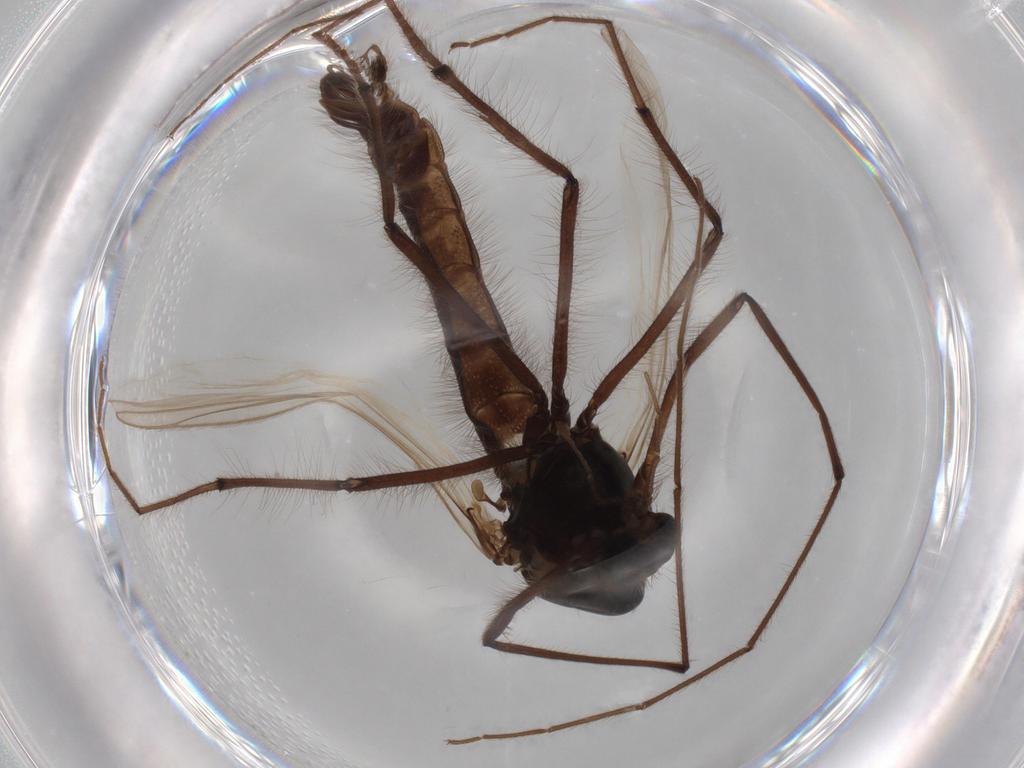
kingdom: Animalia
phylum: Arthropoda
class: Insecta
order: Diptera
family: Chironomidae
